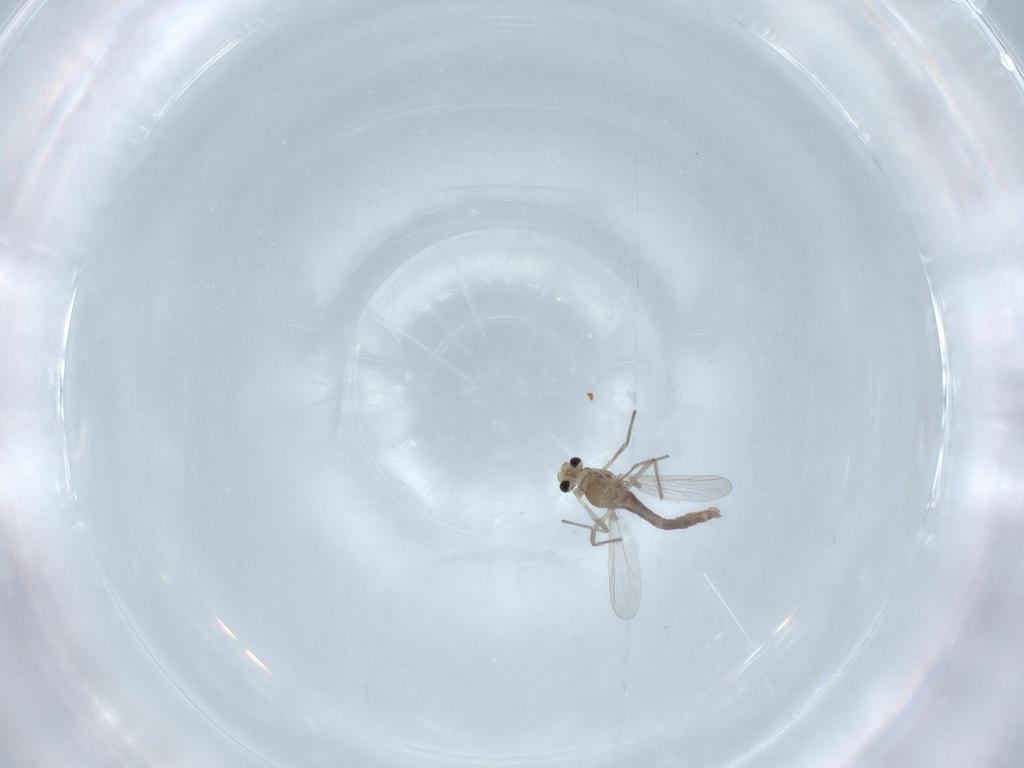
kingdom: Animalia
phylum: Arthropoda
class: Insecta
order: Diptera
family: Chironomidae
